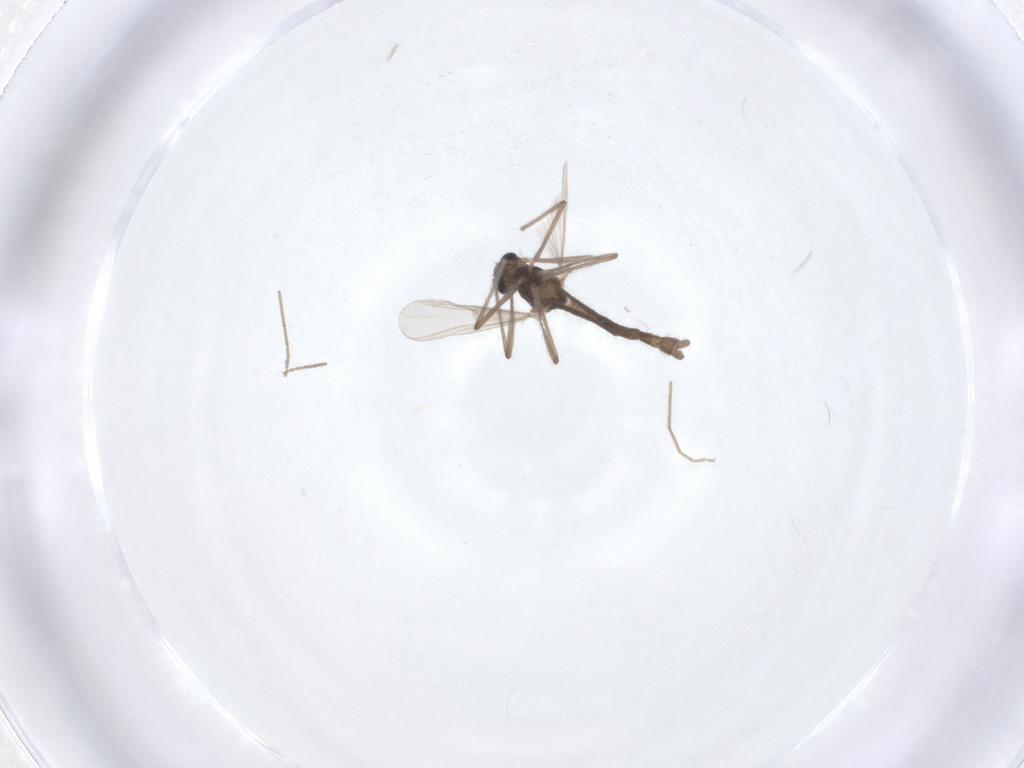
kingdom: Animalia
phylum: Arthropoda
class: Insecta
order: Diptera
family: Chironomidae
